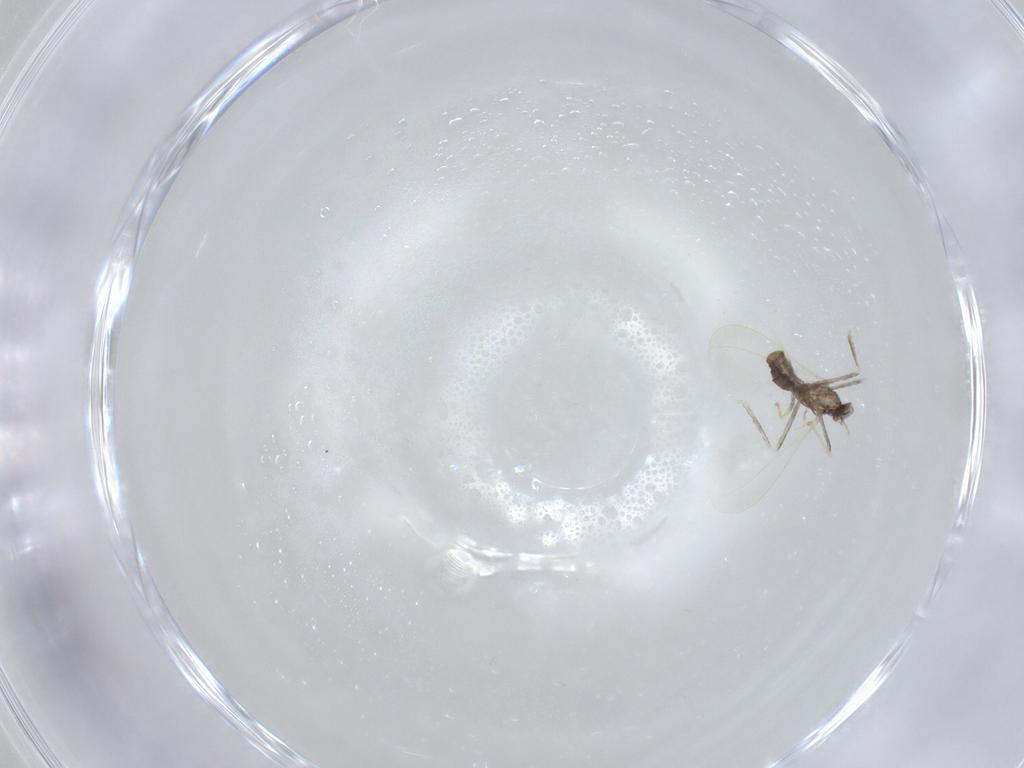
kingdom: Animalia
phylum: Arthropoda
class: Insecta
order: Diptera
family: Cecidomyiidae
